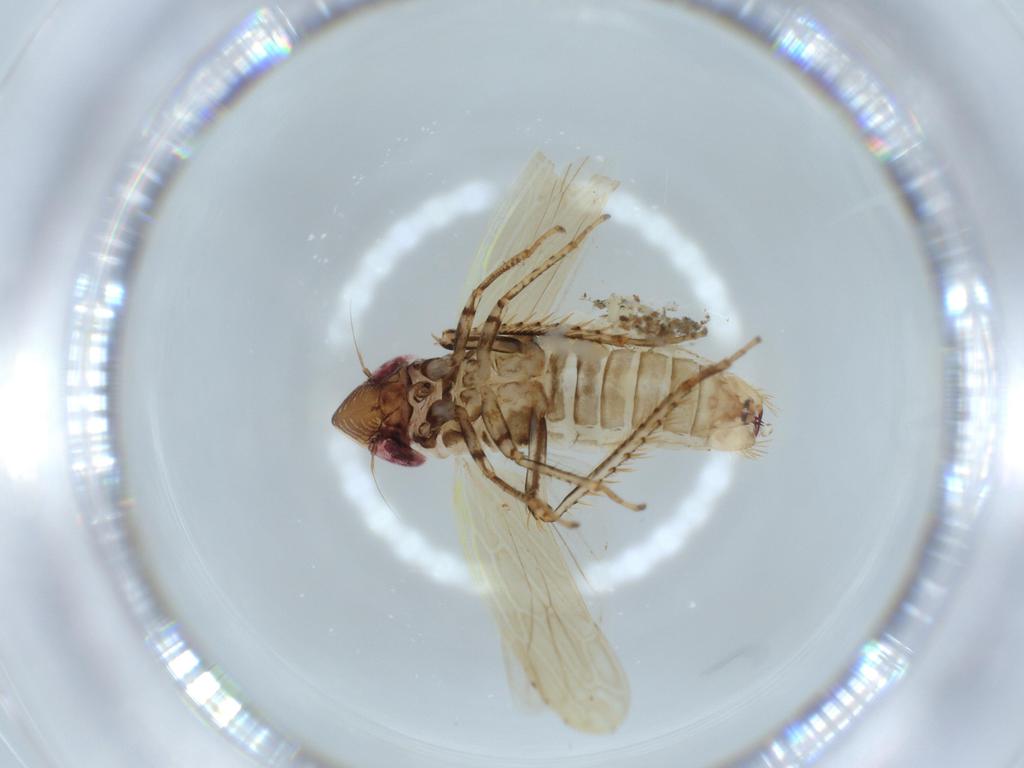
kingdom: Animalia
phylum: Arthropoda
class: Insecta
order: Hemiptera
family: Cicadellidae
